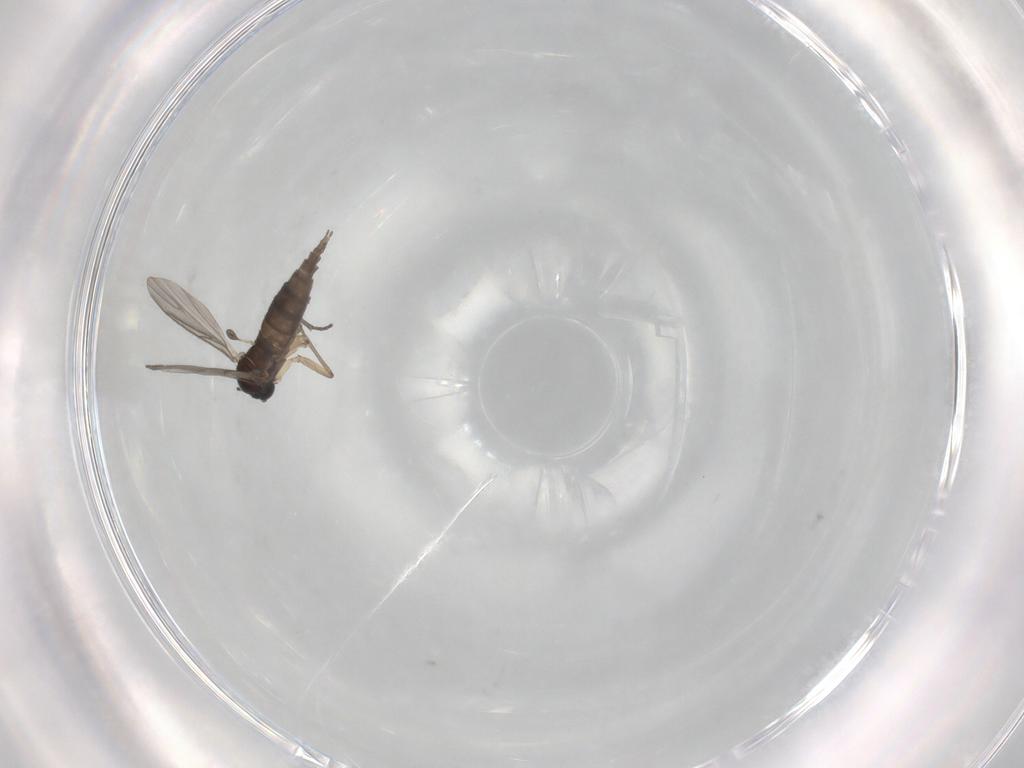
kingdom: Animalia
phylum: Arthropoda
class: Insecta
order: Diptera
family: Sciaridae
